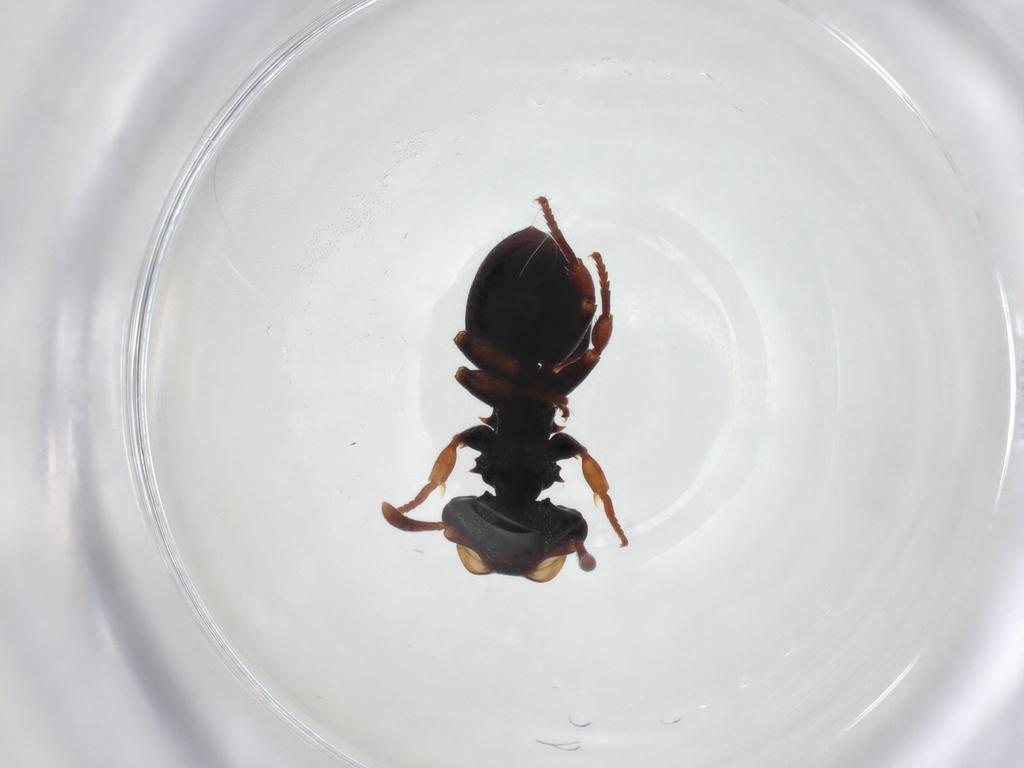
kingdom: Animalia
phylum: Arthropoda
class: Insecta
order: Hymenoptera
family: Formicidae
